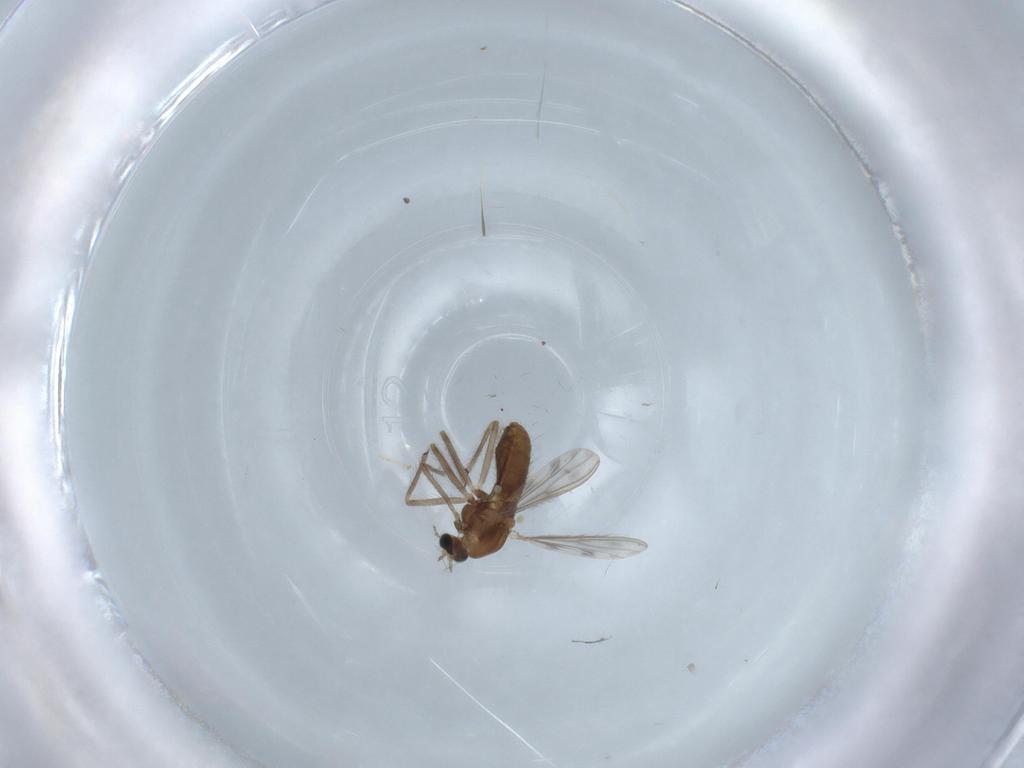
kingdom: Animalia
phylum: Arthropoda
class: Insecta
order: Diptera
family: Chironomidae
